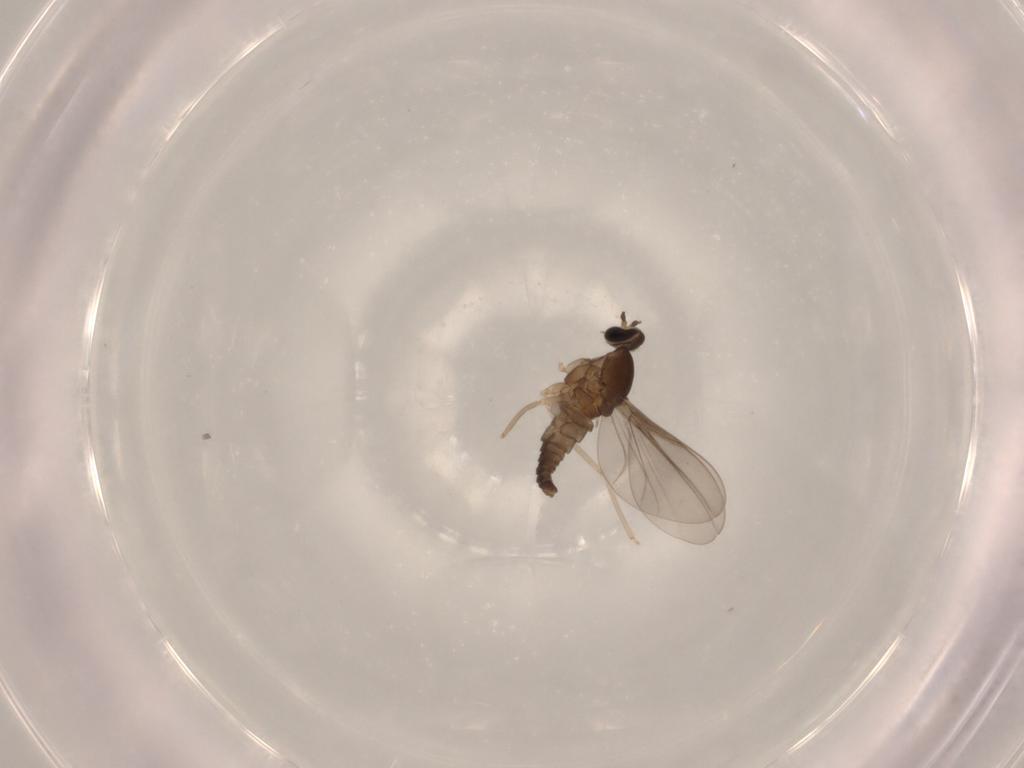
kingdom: Animalia
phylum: Arthropoda
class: Insecta
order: Diptera
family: Cecidomyiidae
